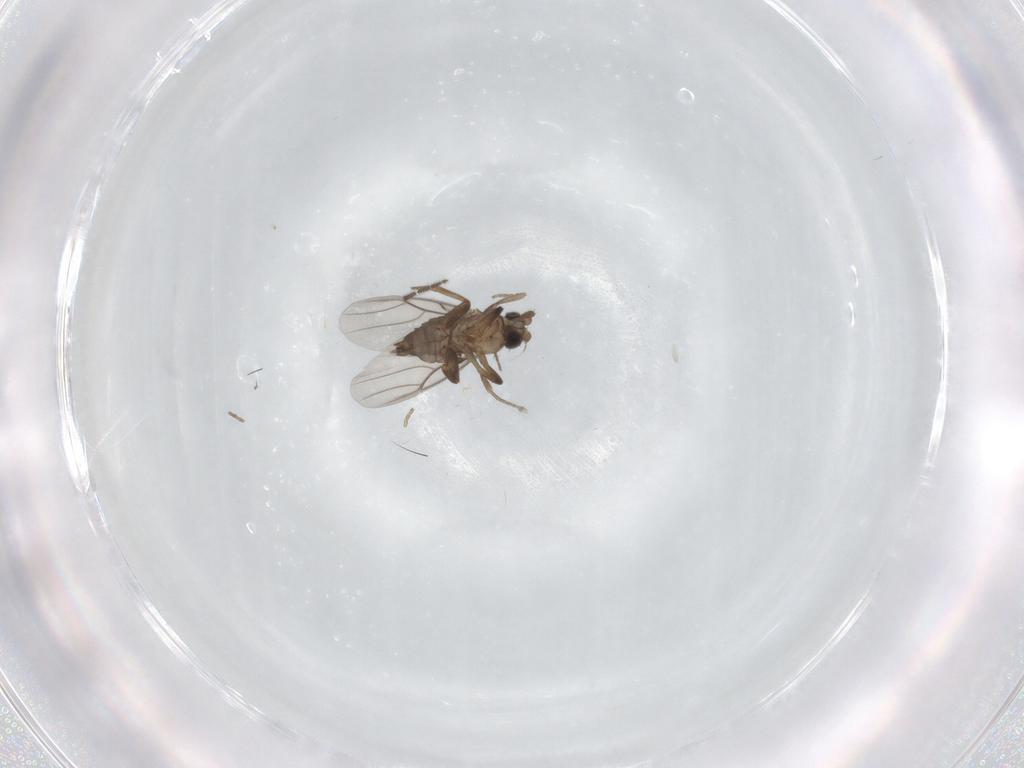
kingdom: Animalia
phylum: Arthropoda
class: Insecta
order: Diptera
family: Phoridae
